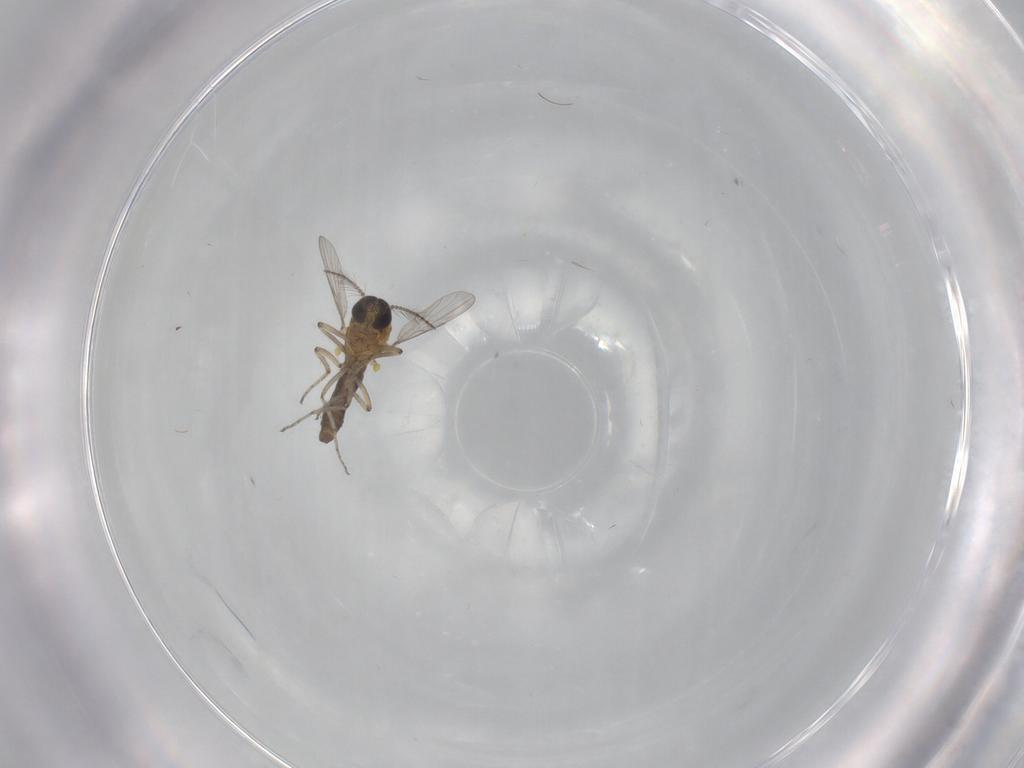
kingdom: Animalia
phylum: Arthropoda
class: Insecta
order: Diptera
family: Ceratopogonidae
